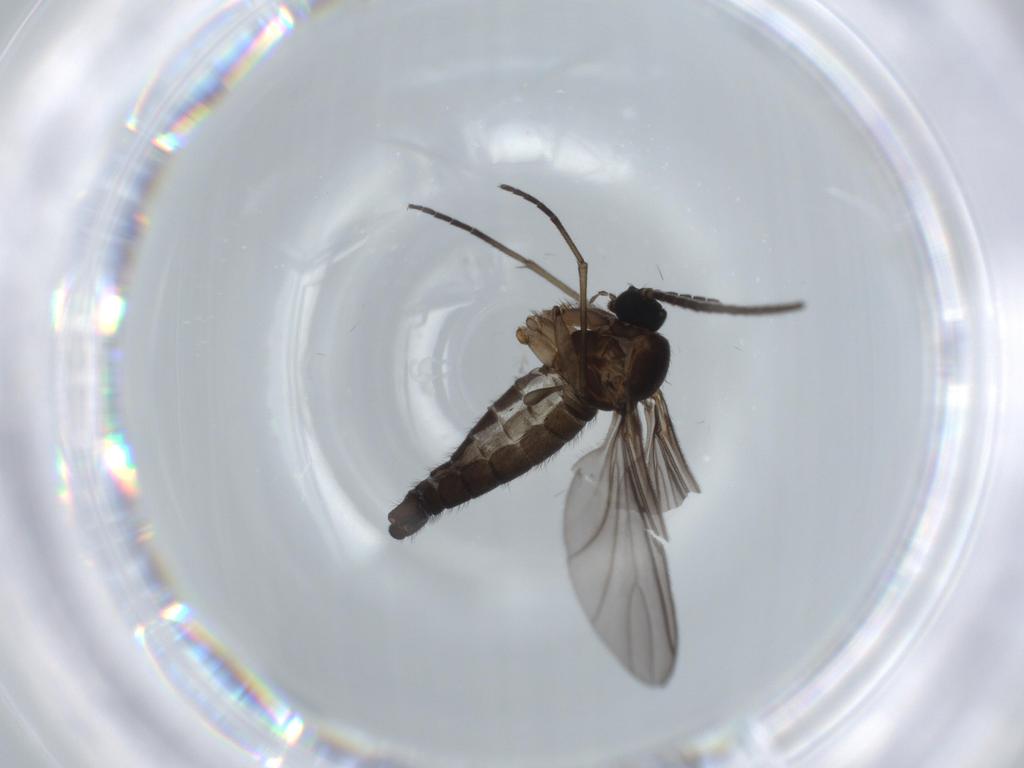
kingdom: Animalia
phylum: Arthropoda
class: Insecta
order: Diptera
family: Sciaridae
